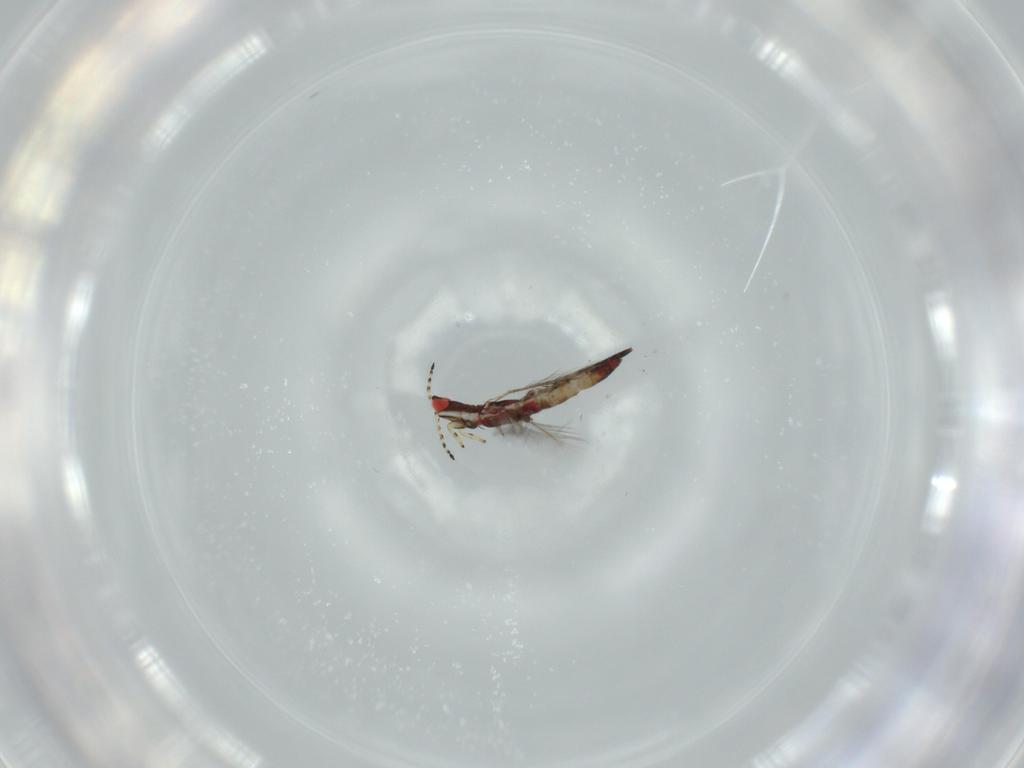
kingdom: Animalia
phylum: Arthropoda
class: Insecta
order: Thysanoptera
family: Phlaeothripidae
